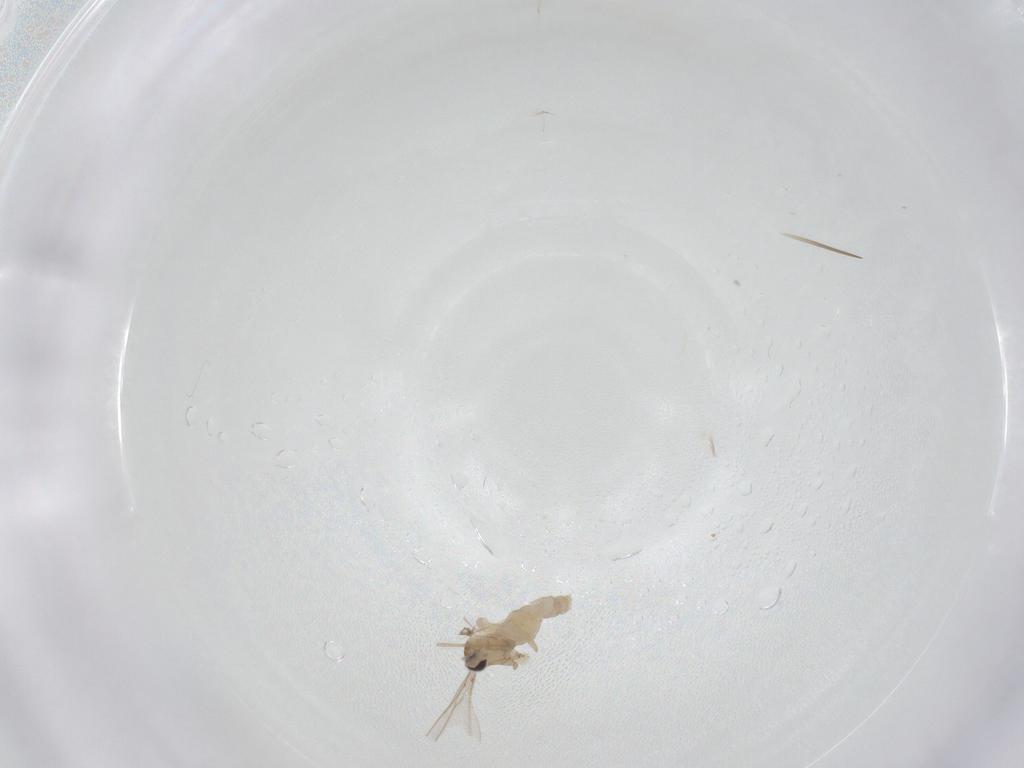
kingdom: Animalia
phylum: Arthropoda
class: Insecta
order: Diptera
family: Cecidomyiidae
